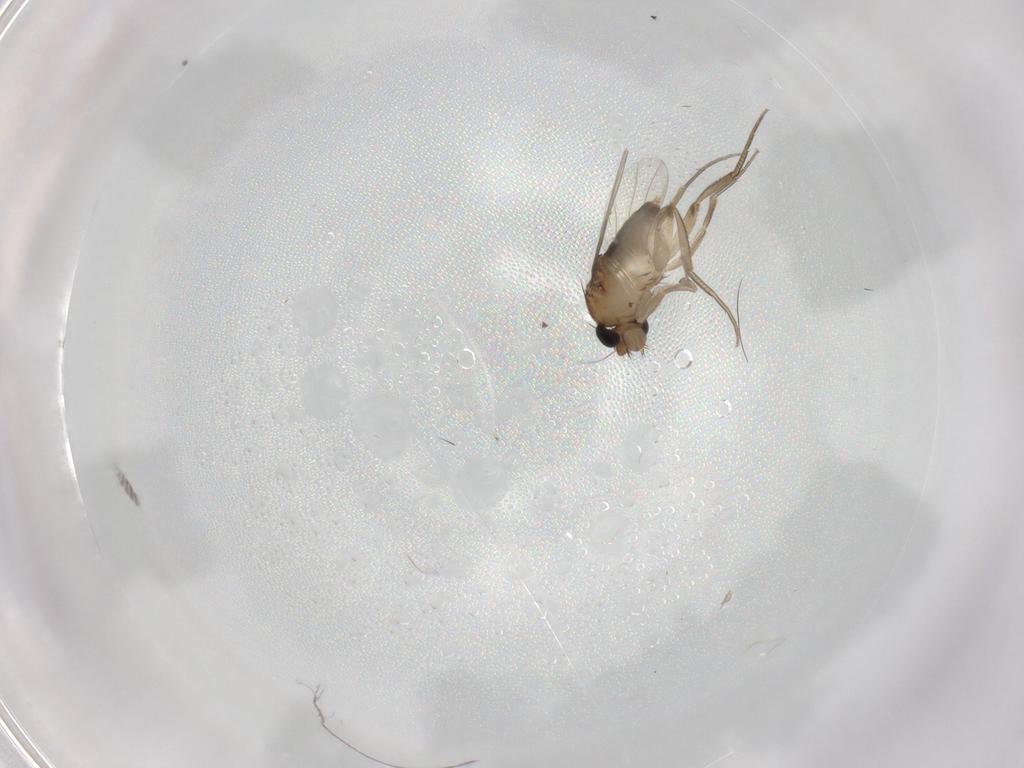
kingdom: Animalia
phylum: Arthropoda
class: Insecta
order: Diptera
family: Phoridae
